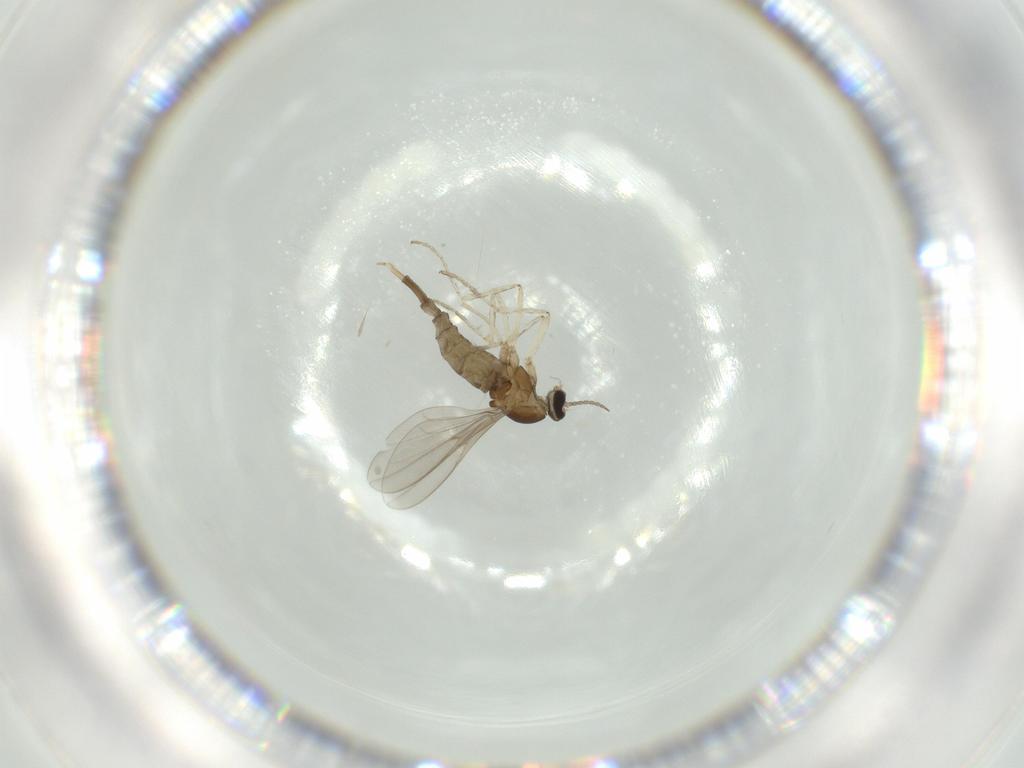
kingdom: Animalia
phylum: Arthropoda
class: Insecta
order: Diptera
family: Cecidomyiidae
